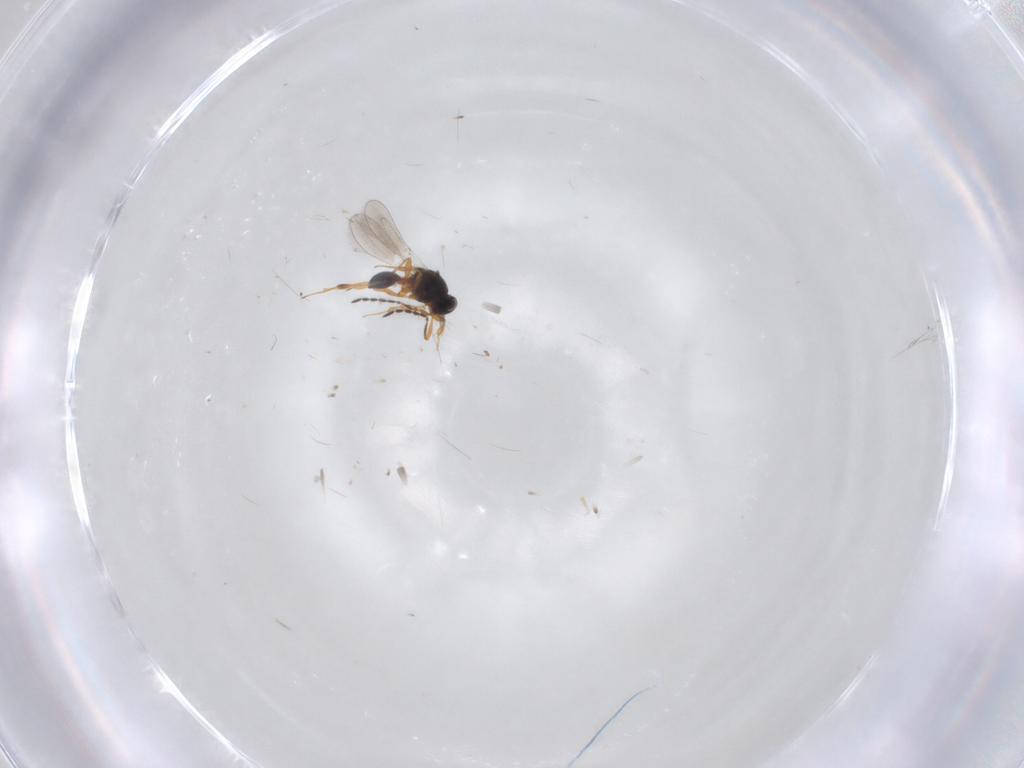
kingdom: Animalia
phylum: Arthropoda
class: Insecta
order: Hymenoptera
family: Platygastridae
